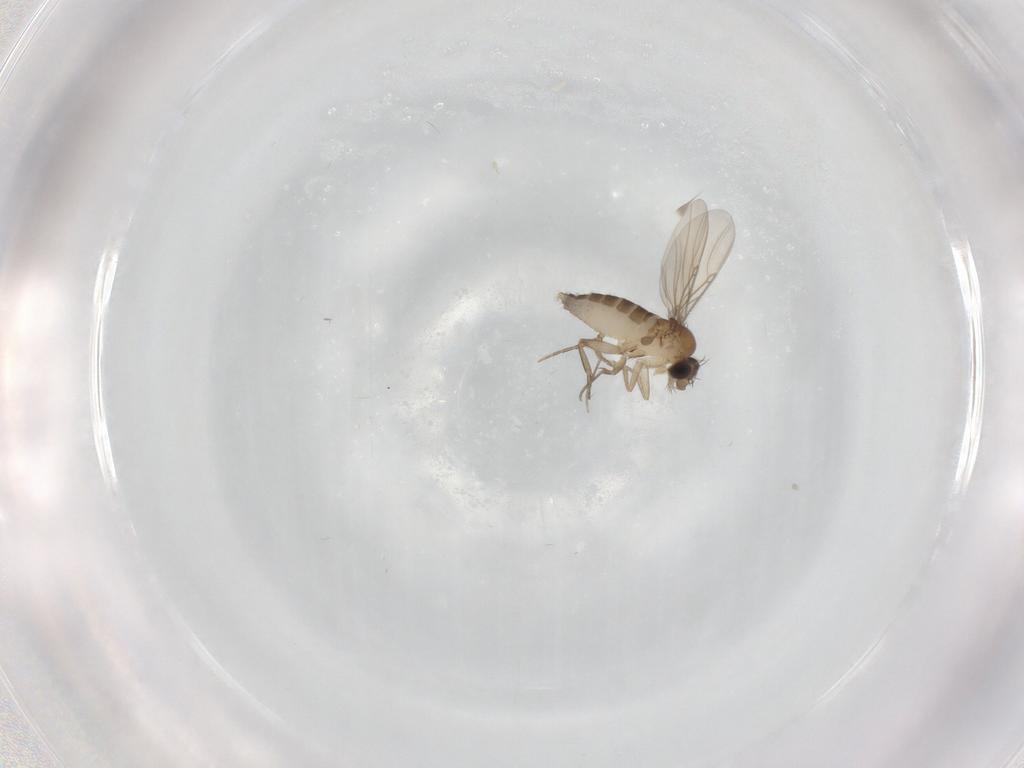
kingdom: Animalia
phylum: Arthropoda
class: Insecta
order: Diptera
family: Phoridae
